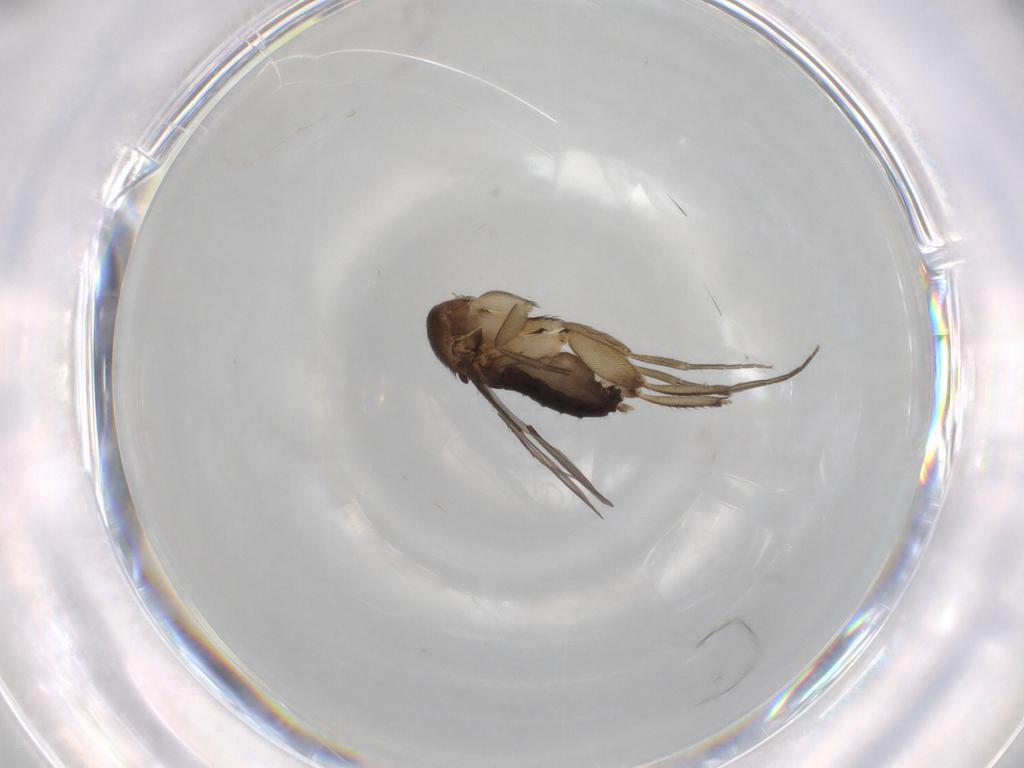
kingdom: Animalia
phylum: Arthropoda
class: Insecta
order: Diptera
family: Phoridae
